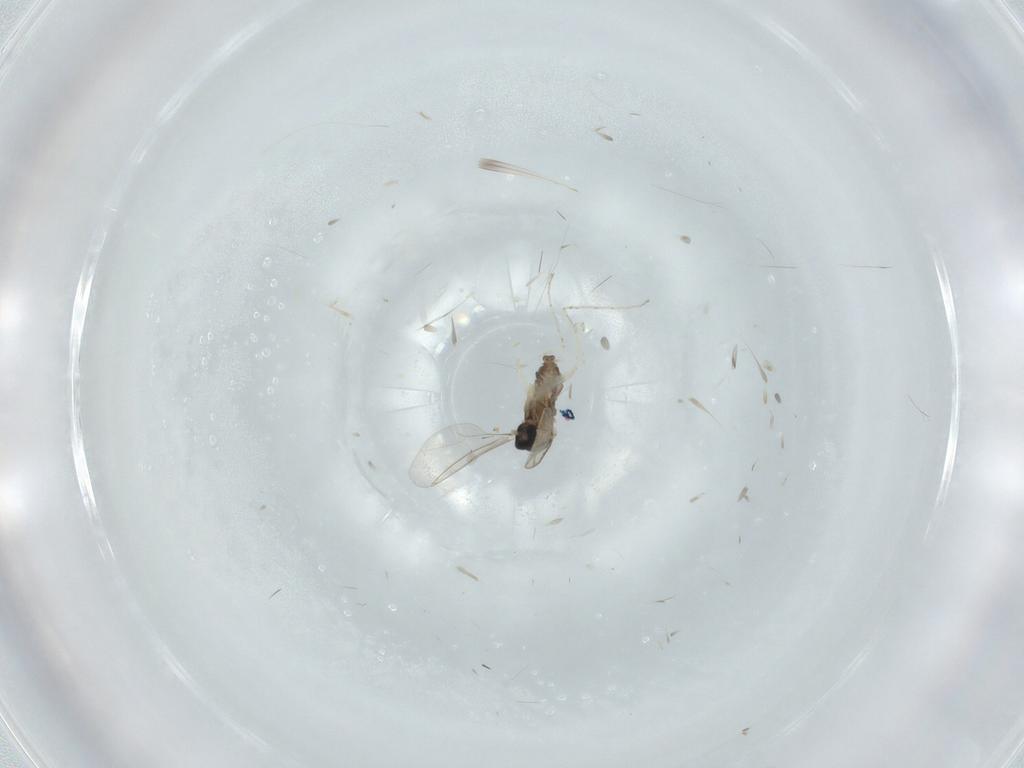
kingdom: Animalia
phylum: Arthropoda
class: Insecta
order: Diptera
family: Cecidomyiidae
